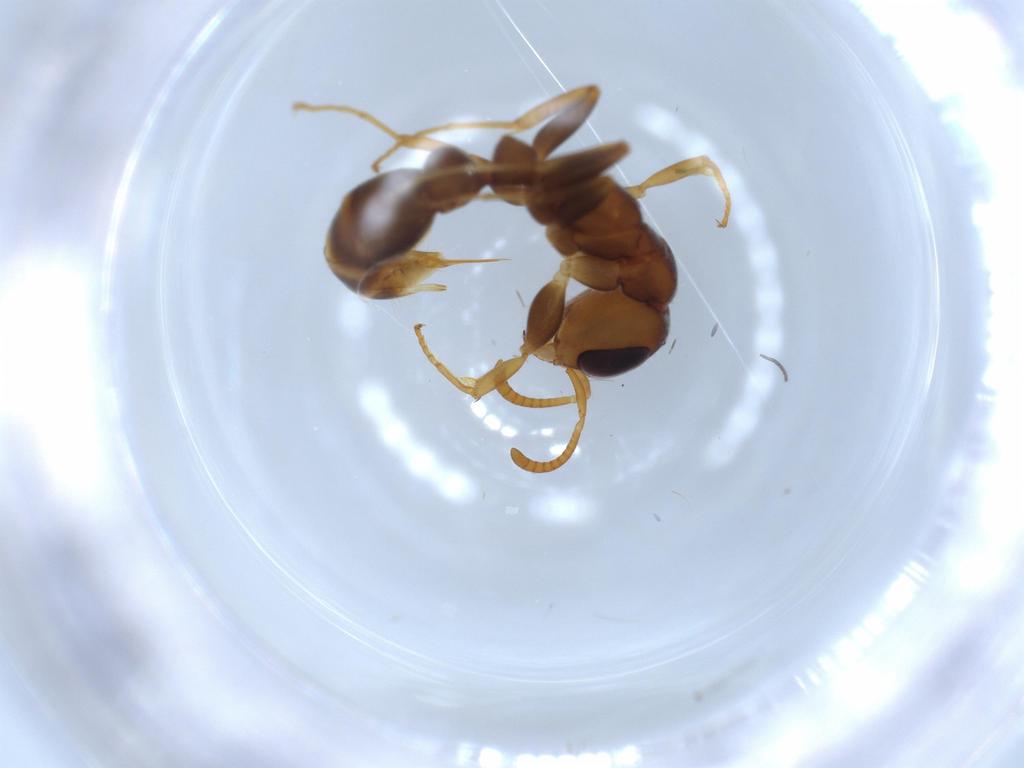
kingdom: Animalia
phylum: Arthropoda
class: Insecta
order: Hymenoptera
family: Formicidae
